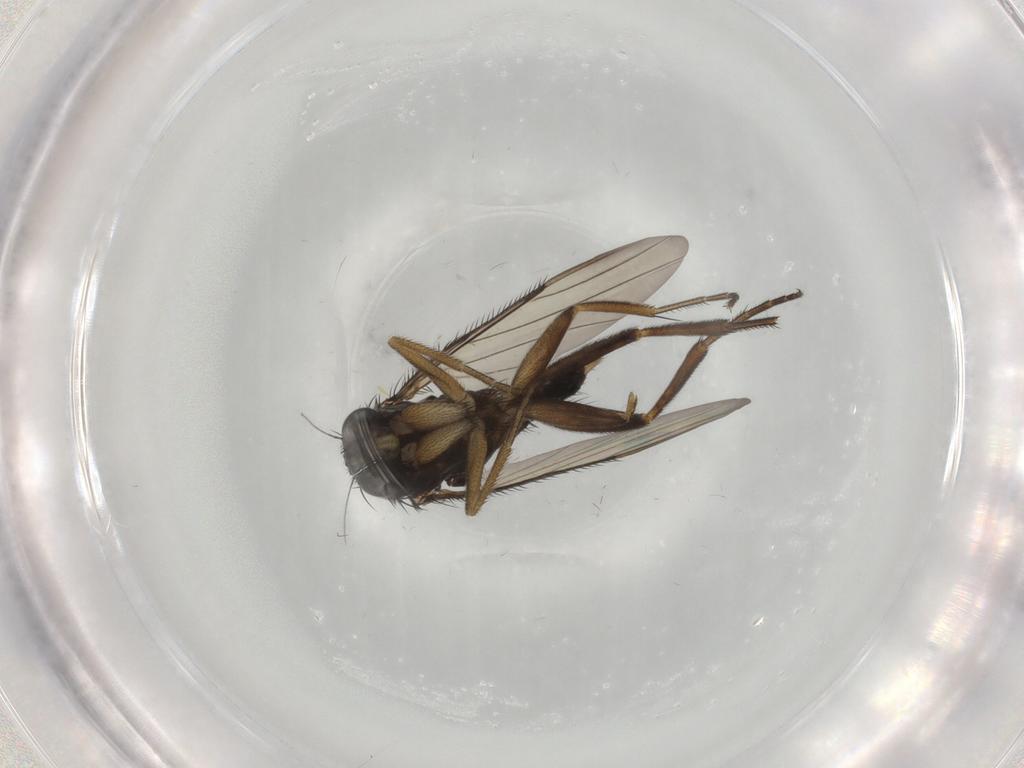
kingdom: Animalia
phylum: Arthropoda
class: Insecta
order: Diptera
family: Phoridae
